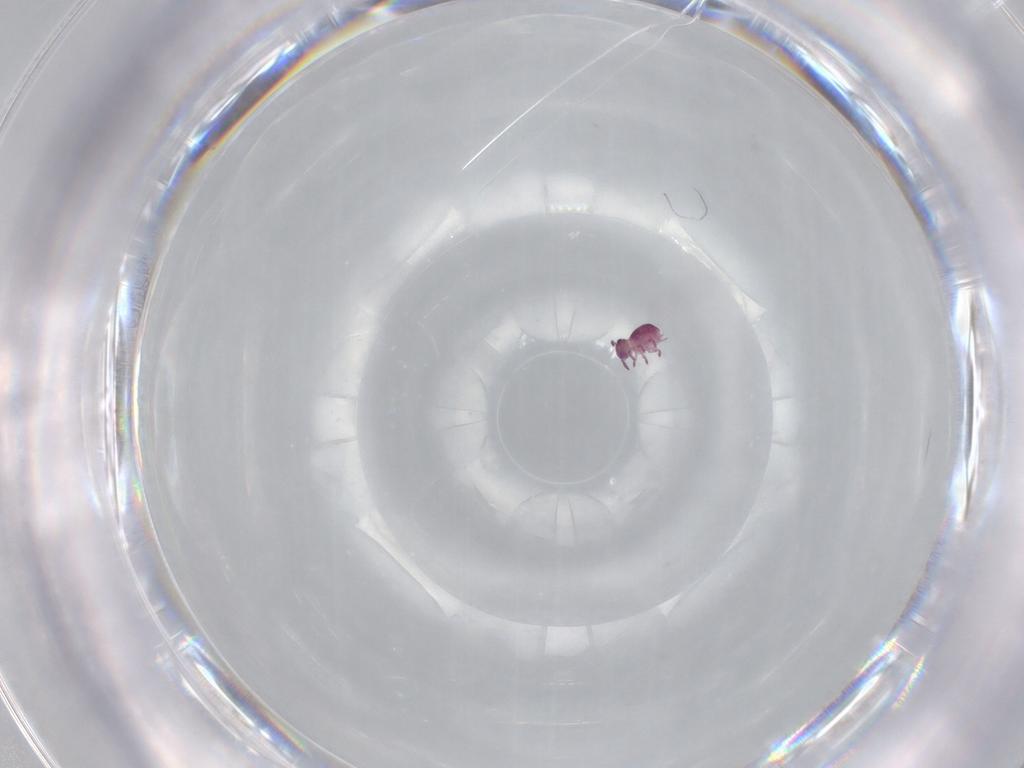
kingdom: Animalia
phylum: Arthropoda
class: Collembola
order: Symphypleona
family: Sminthurididae
